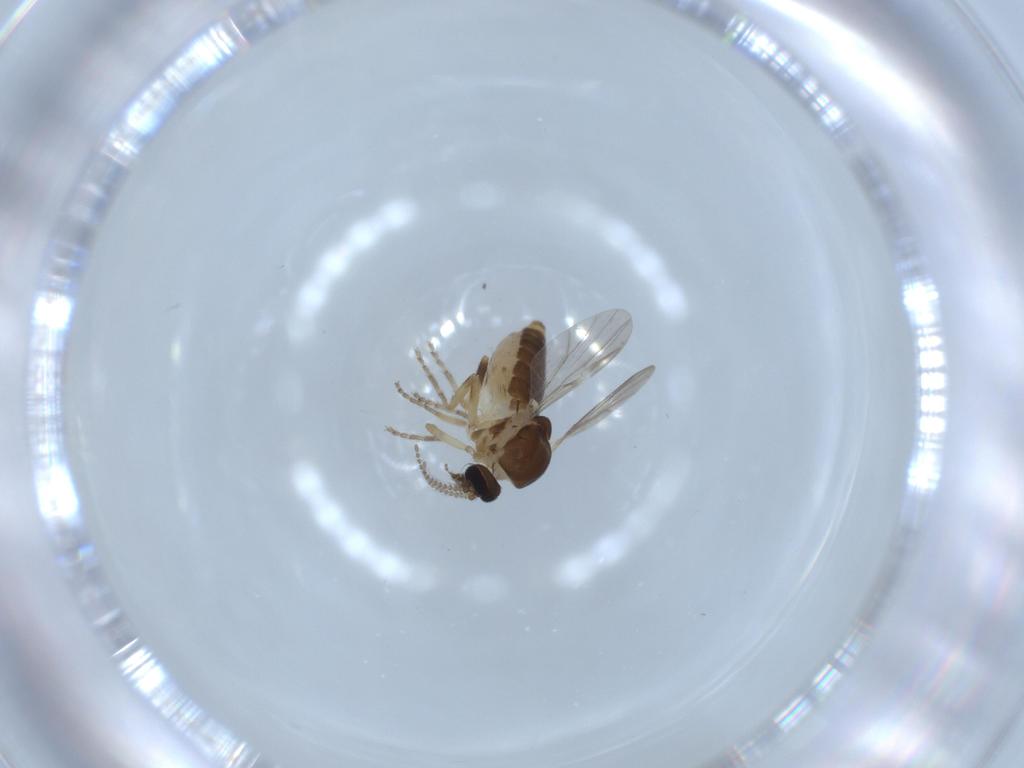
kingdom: Animalia
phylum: Arthropoda
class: Insecta
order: Diptera
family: Ceratopogonidae
